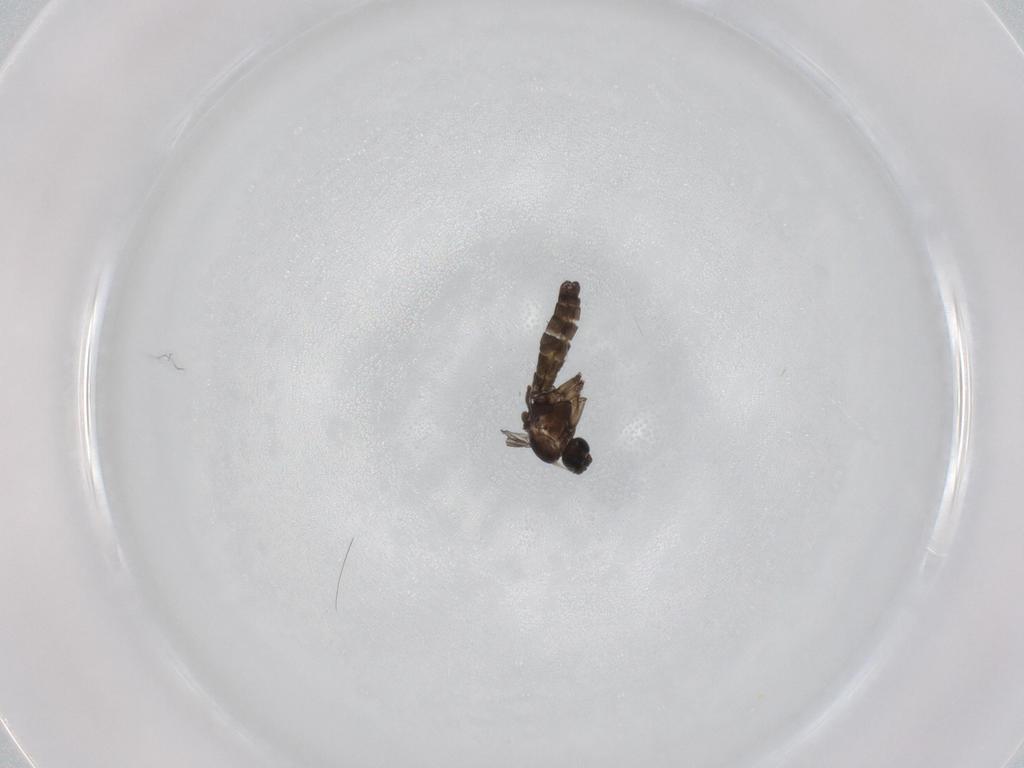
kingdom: Animalia
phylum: Arthropoda
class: Insecta
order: Diptera
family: Sciaridae
